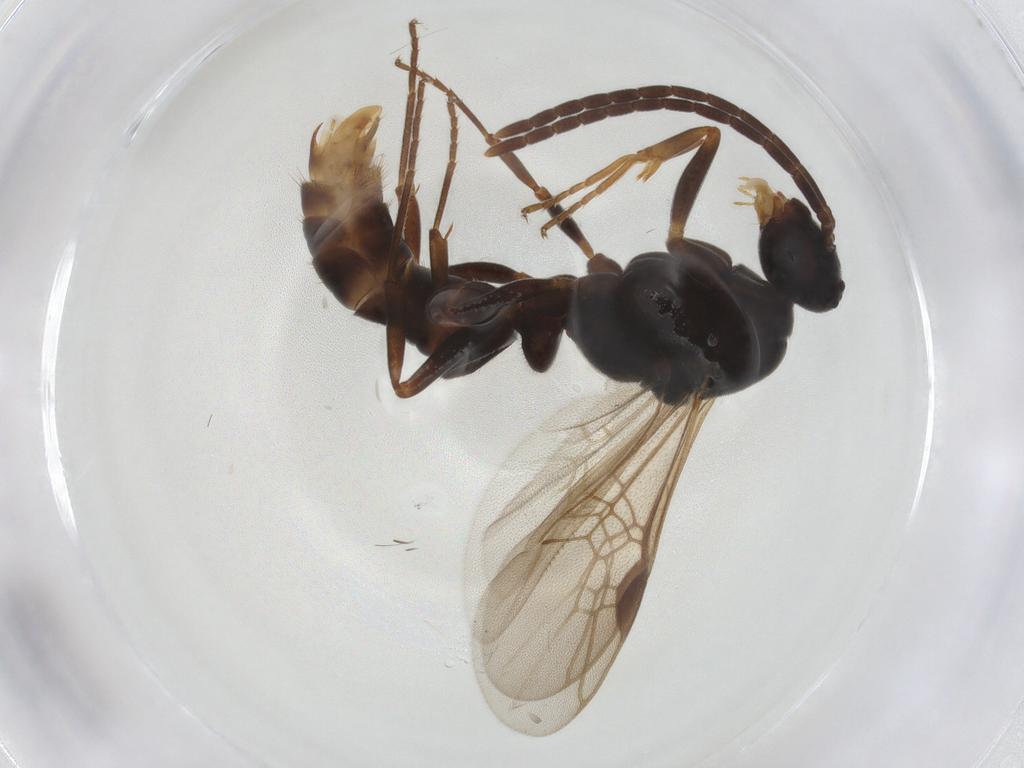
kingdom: Animalia
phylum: Arthropoda
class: Insecta
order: Hymenoptera
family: Formicidae
